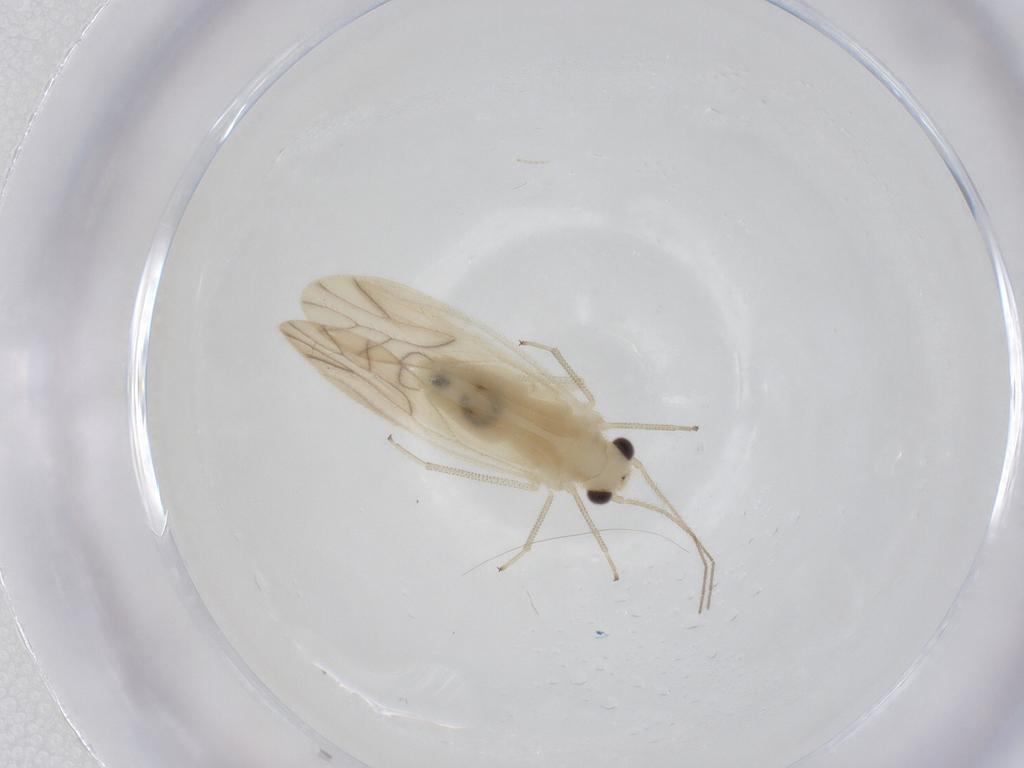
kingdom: Animalia
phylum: Arthropoda
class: Insecta
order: Psocodea
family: Caeciliusidae
